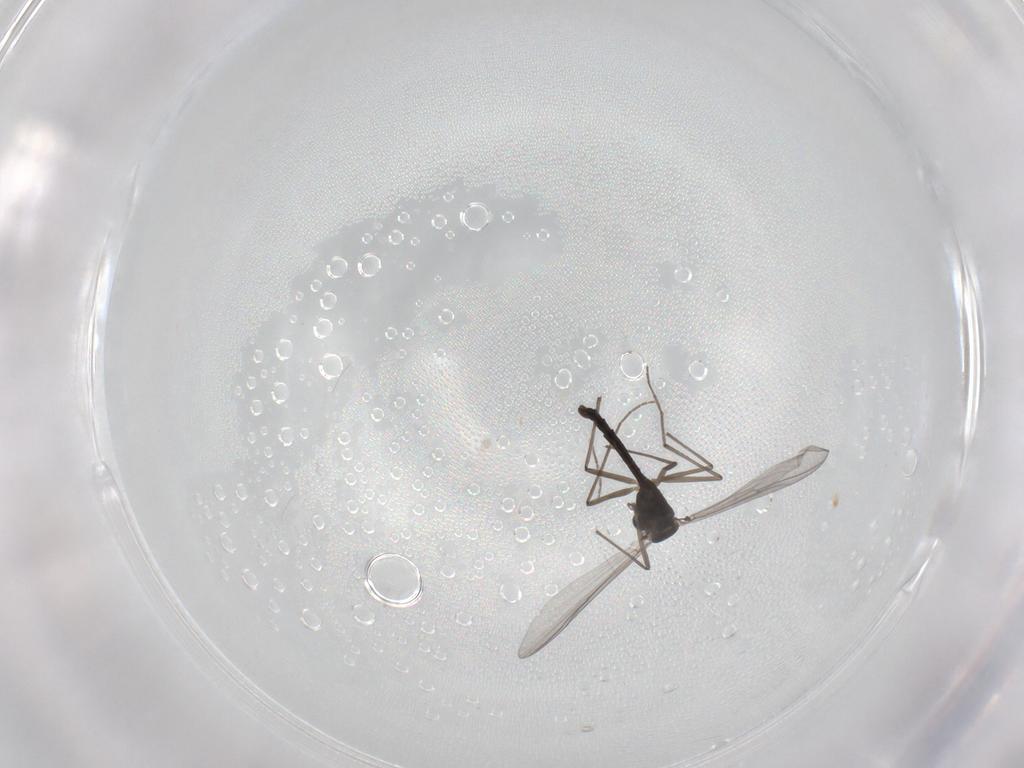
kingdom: Animalia
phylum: Arthropoda
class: Insecta
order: Diptera
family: Chironomidae
